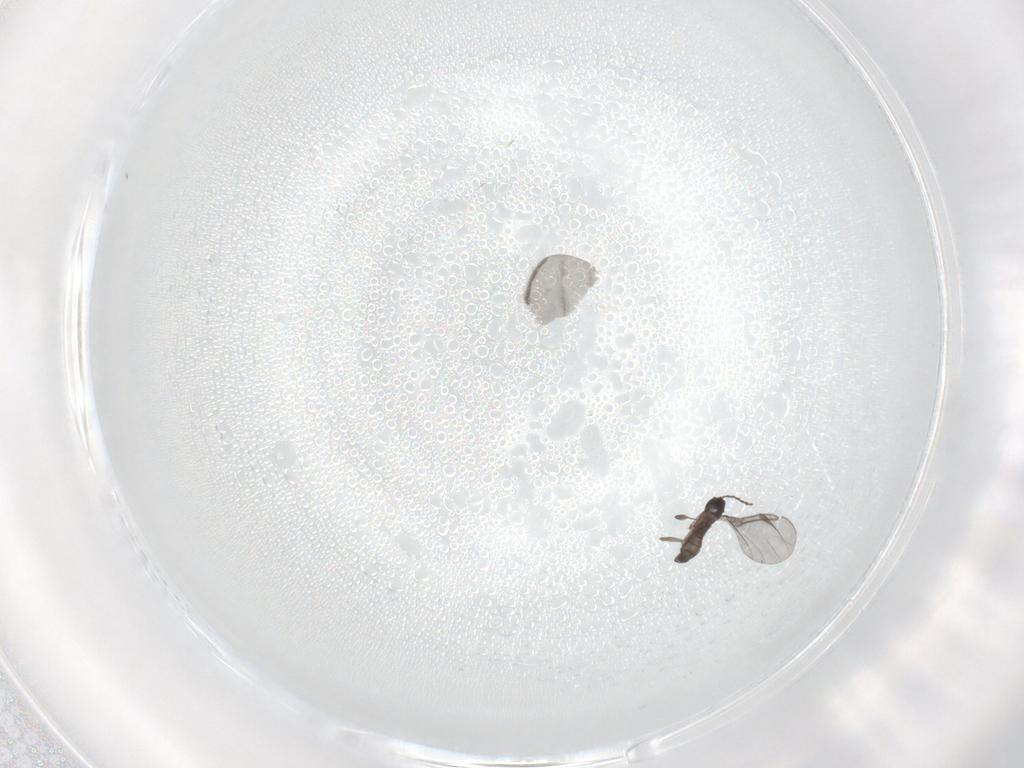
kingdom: Animalia
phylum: Arthropoda
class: Insecta
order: Diptera
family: Sciaridae
